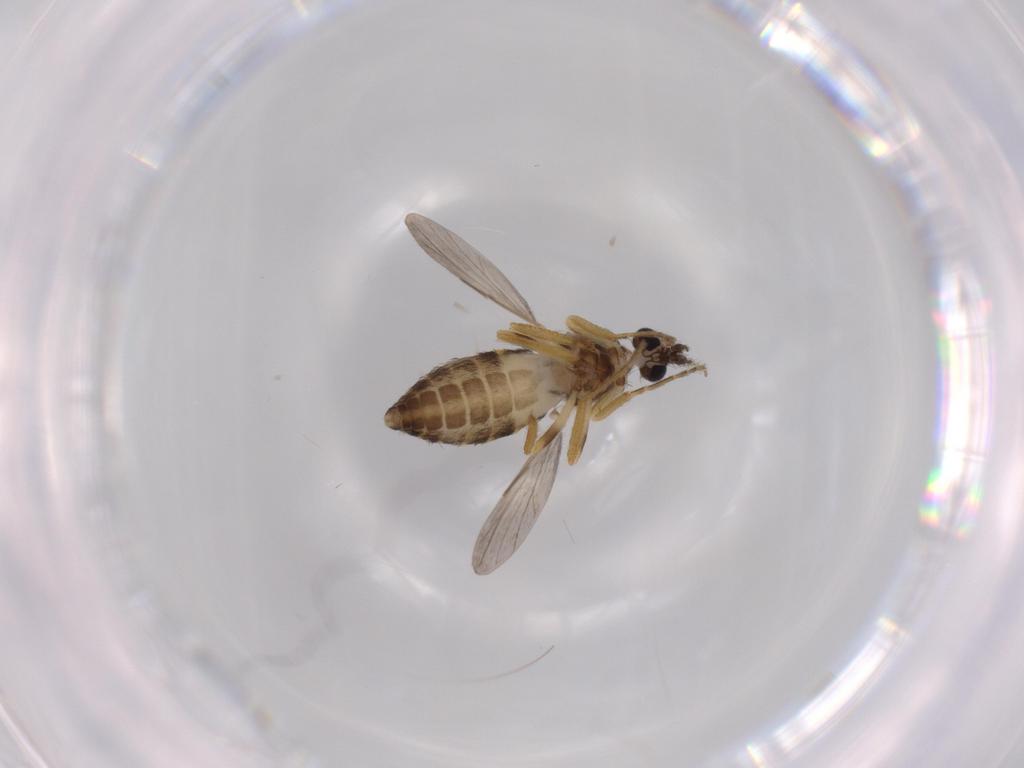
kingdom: Animalia
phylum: Arthropoda
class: Insecta
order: Diptera
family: Ceratopogonidae
